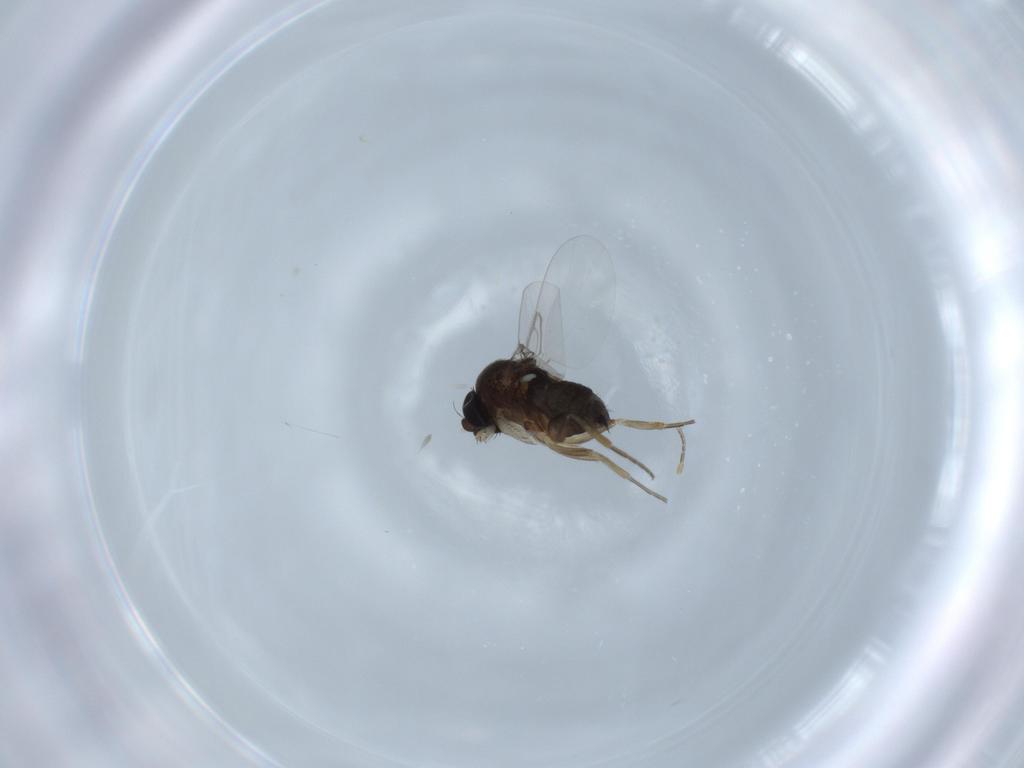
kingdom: Animalia
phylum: Arthropoda
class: Insecta
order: Diptera
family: Phoridae
